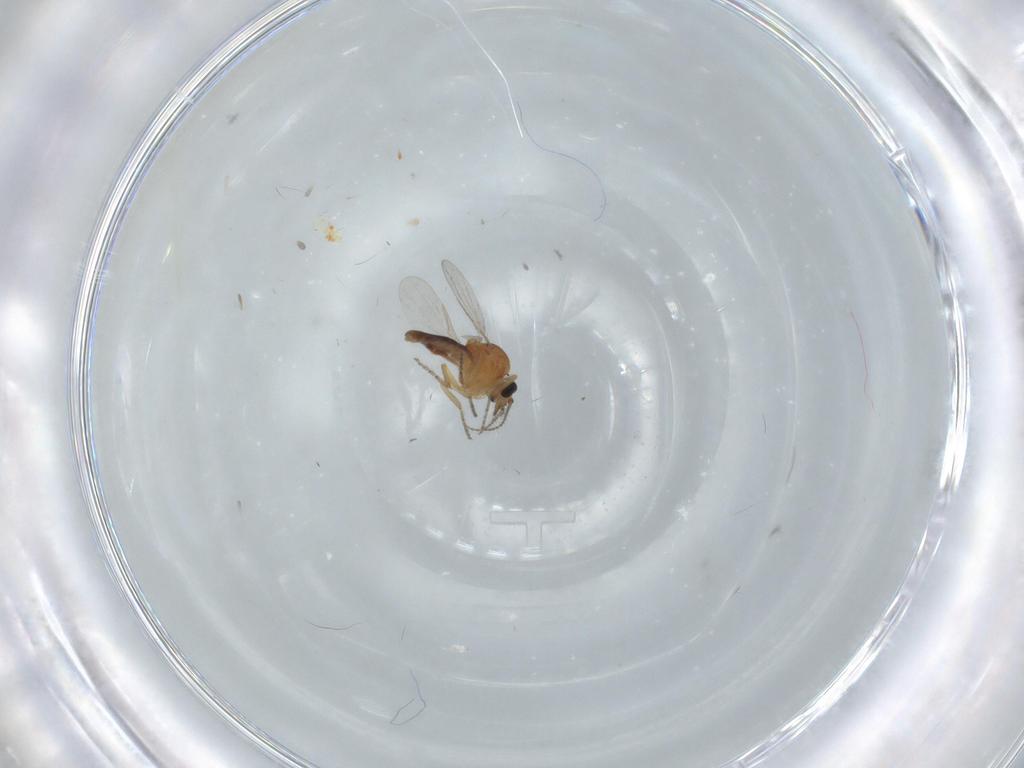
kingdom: Animalia
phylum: Arthropoda
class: Insecta
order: Diptera
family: Ceratopogonidae
